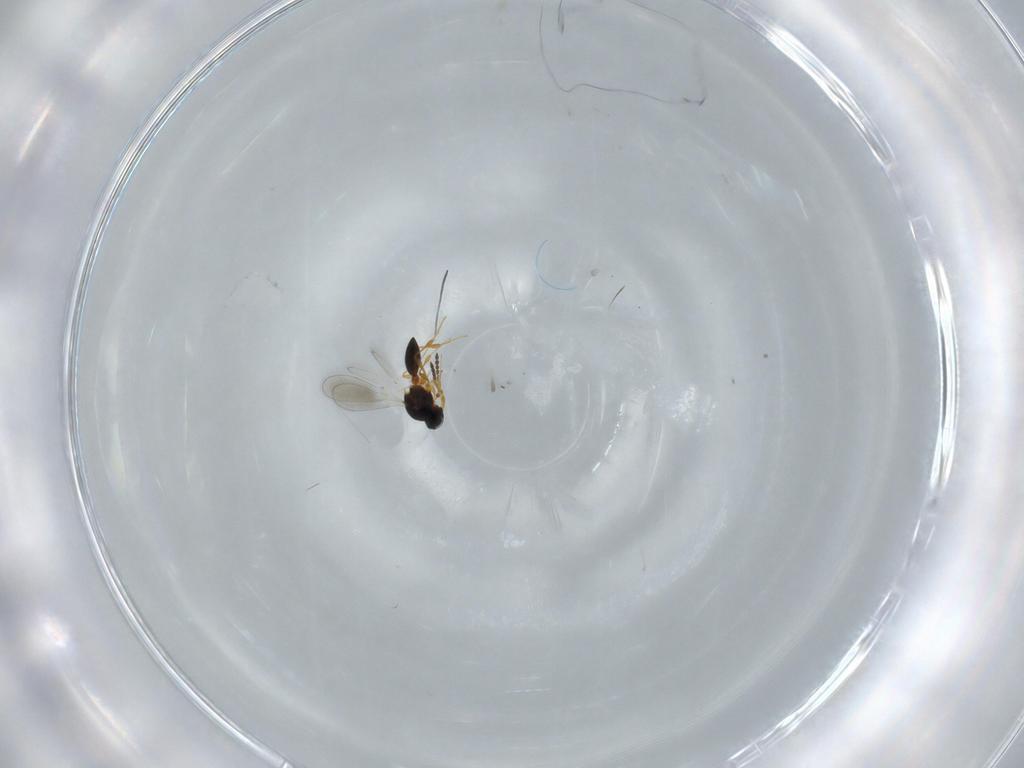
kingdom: Animalia
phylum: Arthropoda
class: Insecta
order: Hymenoptera
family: Platygastridae
